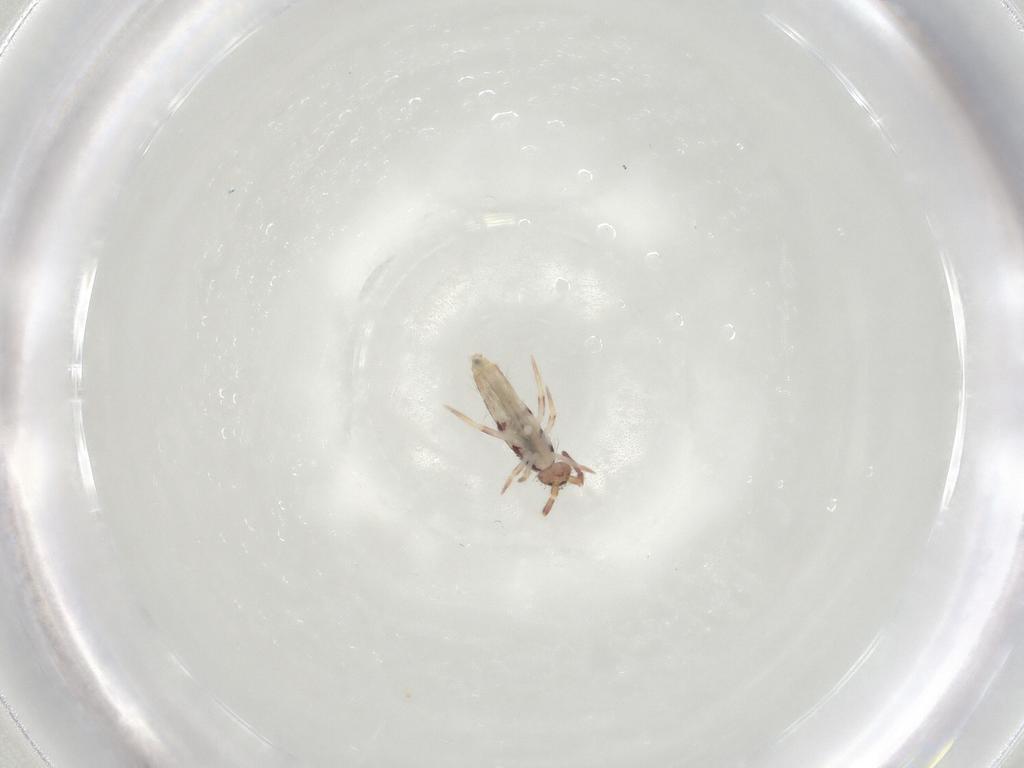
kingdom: Animalia
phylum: Arthropoda
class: Collembola
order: Entomobryomorpha
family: Entomobryidae
